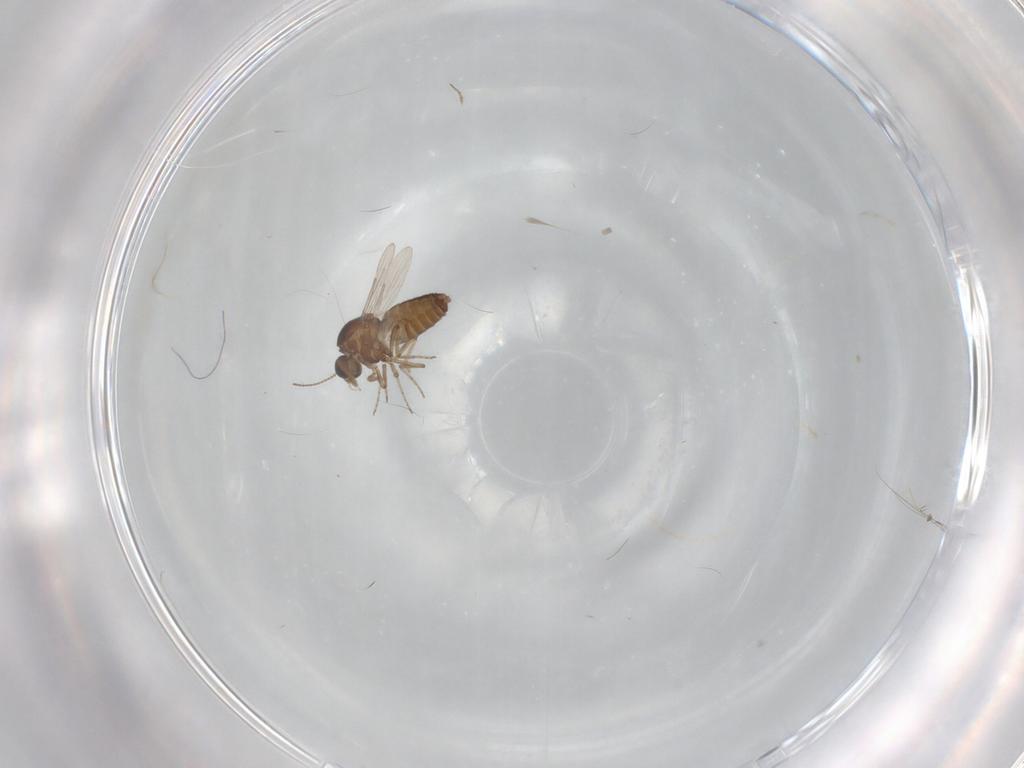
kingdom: Animalia
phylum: Arthropoda
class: Insecta
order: Diptera
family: Ceratopogonidae
